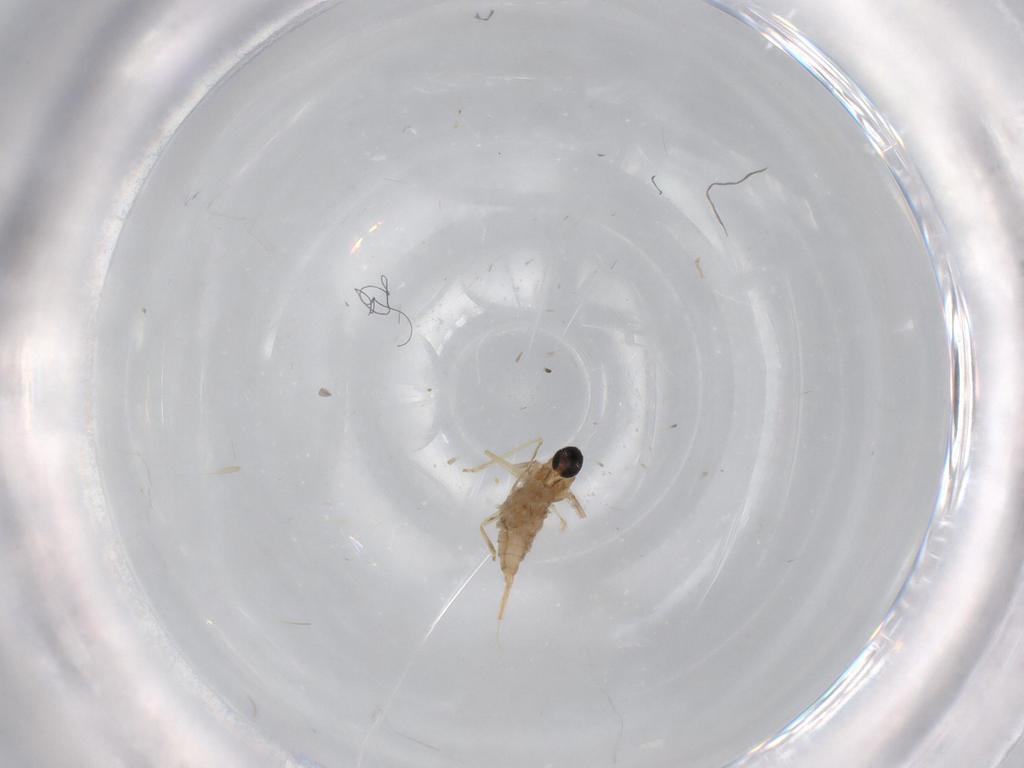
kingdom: Animalia
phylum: Arthropoda
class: Insecta
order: Diptera
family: Cecidomyiidae
